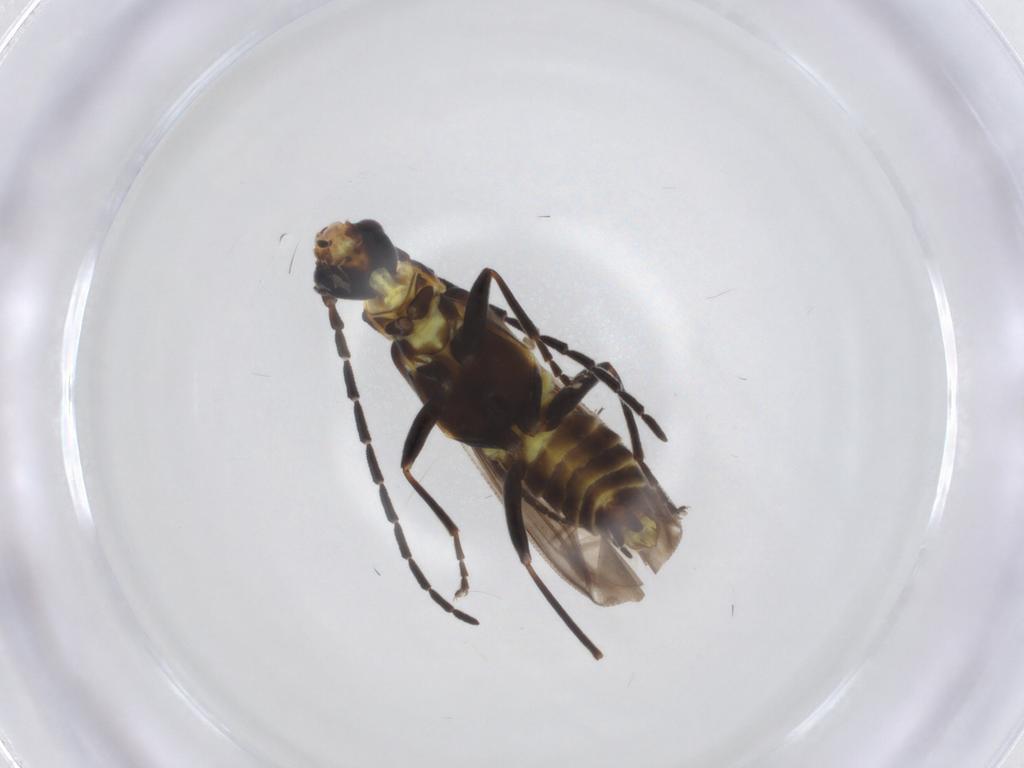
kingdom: Animalia
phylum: Arthropoda
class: Insecta
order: Coleoptera
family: Cantharidae
